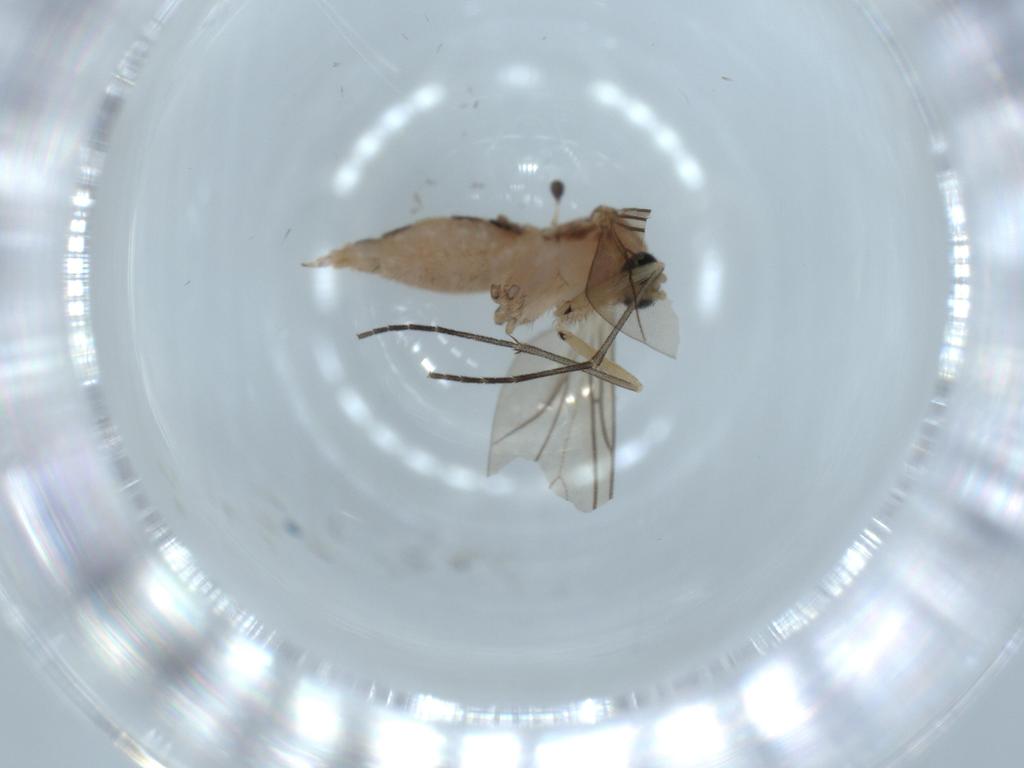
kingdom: Animalia
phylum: Arthropoda
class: Insecta
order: Diptera
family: Sciaridae
